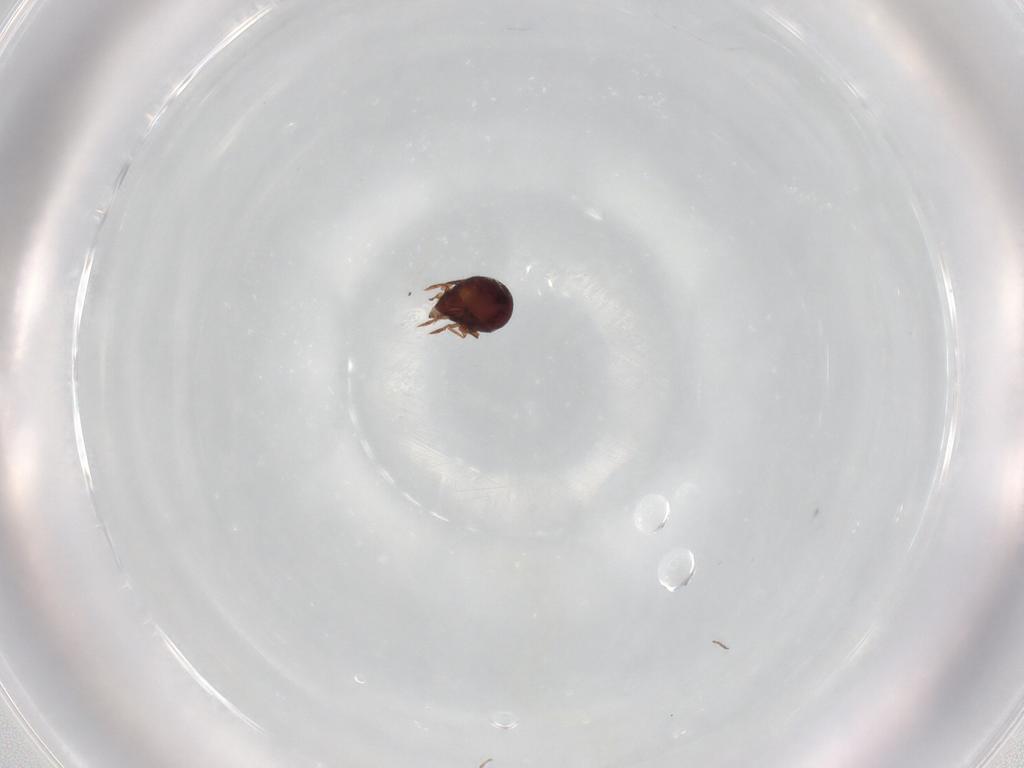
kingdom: Animalia
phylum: Arthropoda
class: Arachnida
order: Sarcoptiformes
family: Humerobatidae
